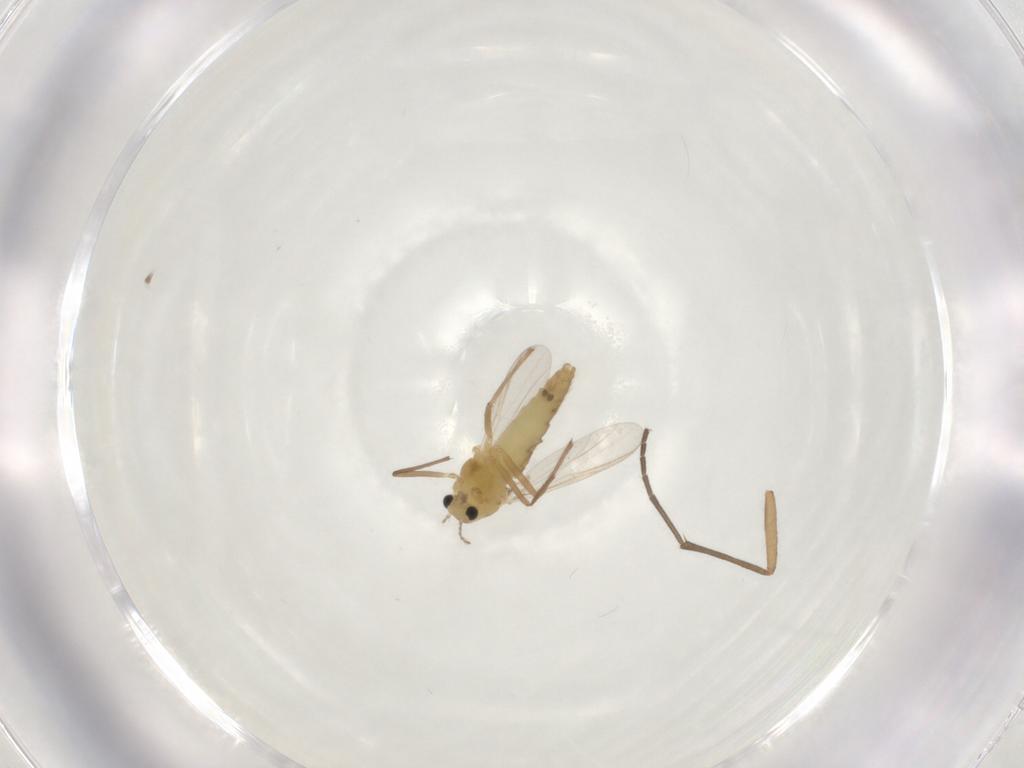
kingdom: Animalia
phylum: Arthropoda
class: Insecta
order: Diptera
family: Chironomidae
